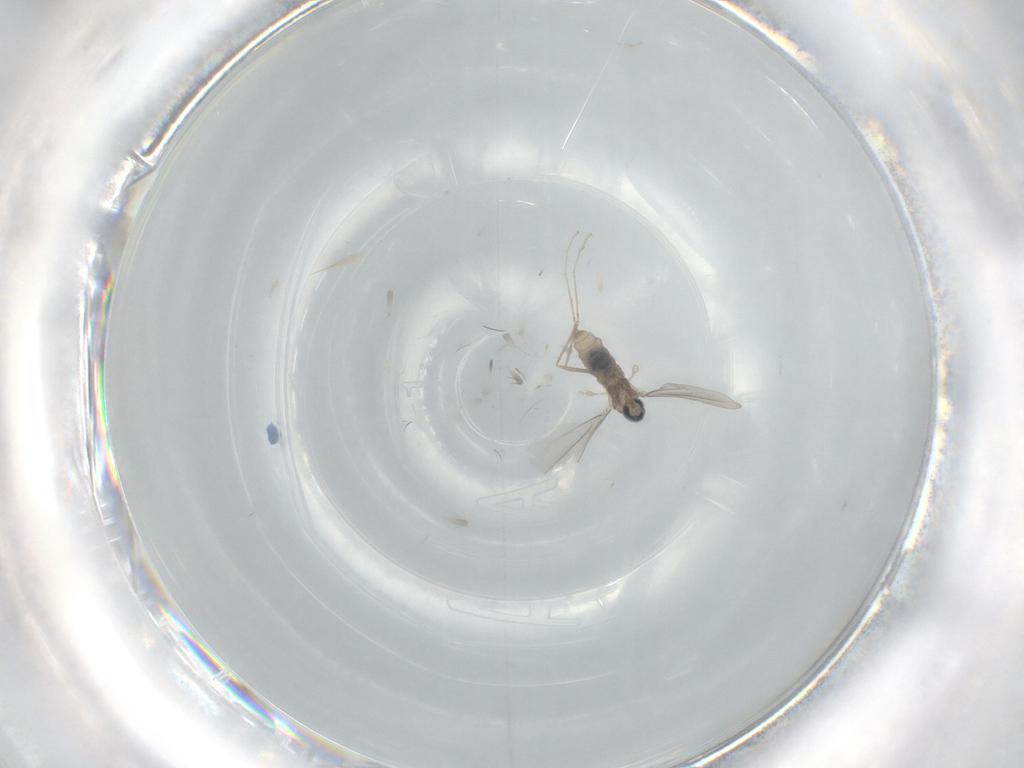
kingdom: Animalia
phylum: Arthropoda
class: Insecta
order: Diptera
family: Cecidomyiidae
